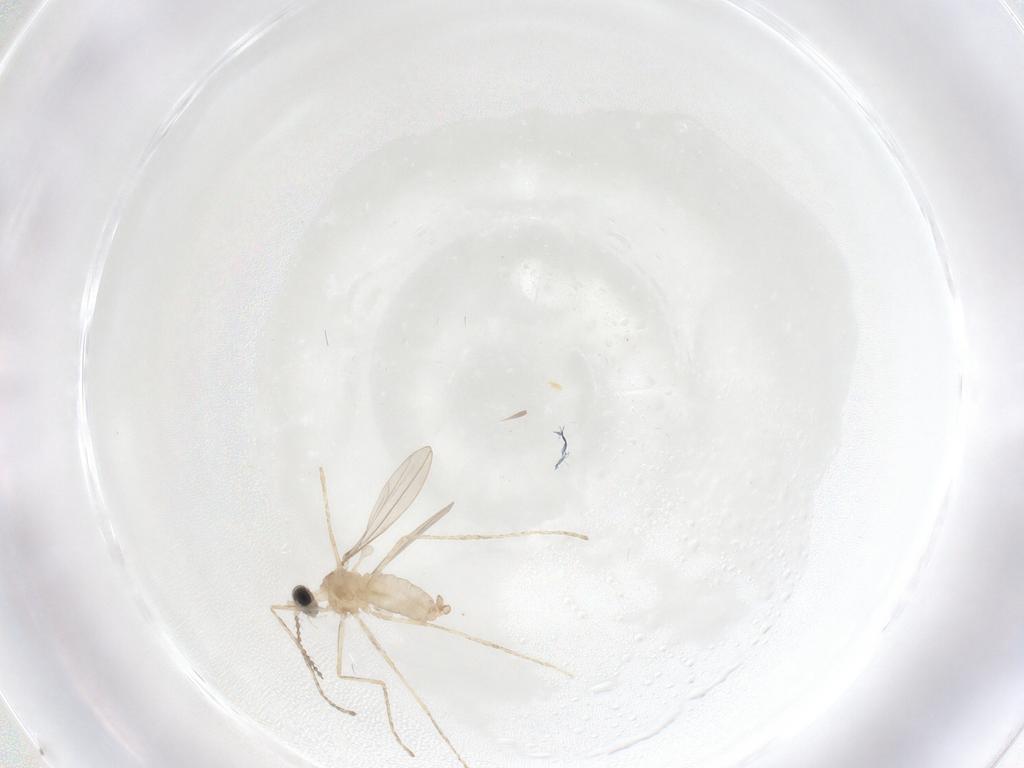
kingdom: Animalia
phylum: Arthropoda
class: Insecta
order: Diptera
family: Cecidomyiidae
